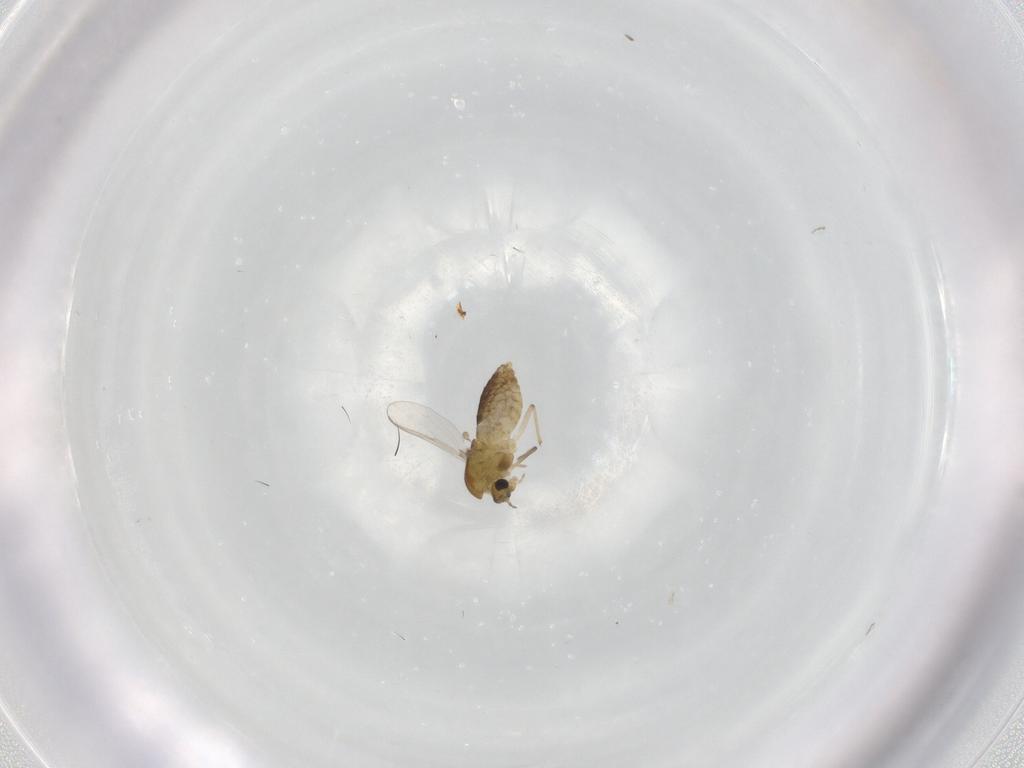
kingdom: Animalia
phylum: Arthropoda
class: Insecta
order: Diptera
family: Chironomidae
